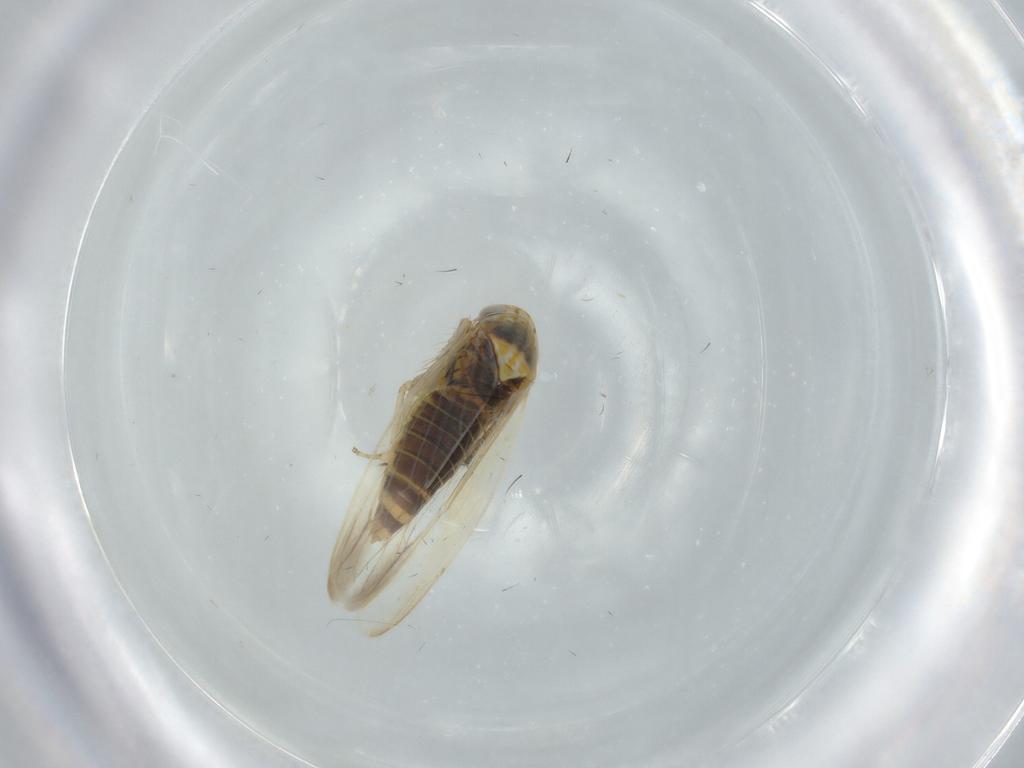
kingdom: Animalia
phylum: Arthropoda
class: Insecta
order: Hemiptera
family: Cicadellidae
